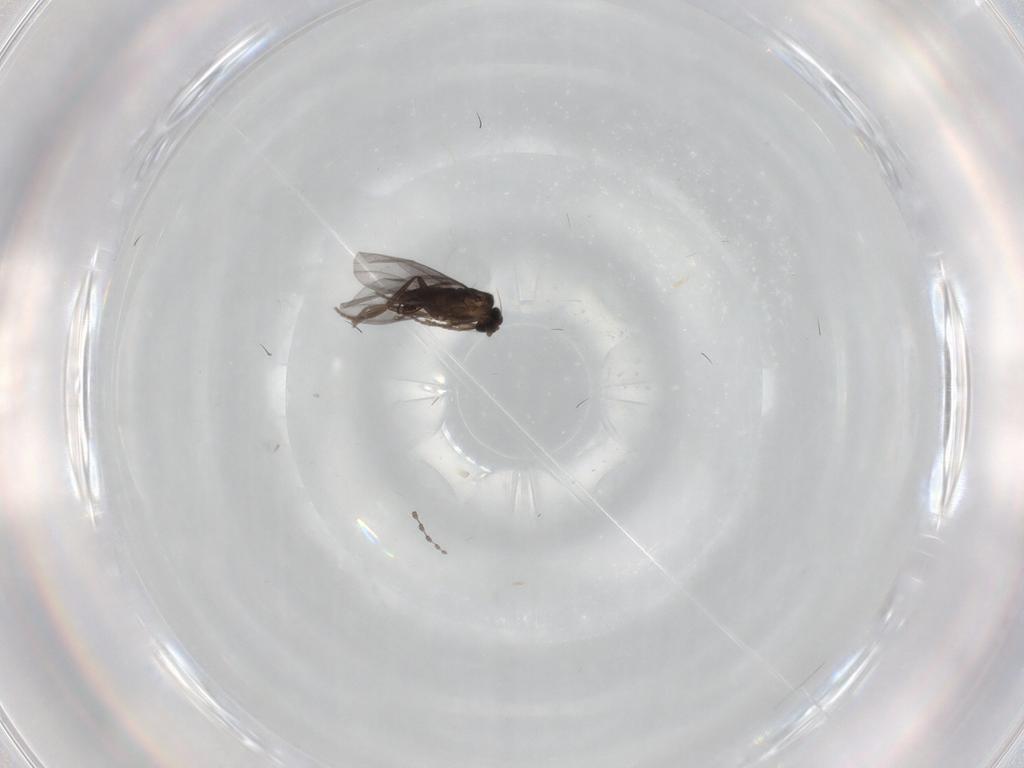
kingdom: Animalia
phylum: Arthropoda
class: Insecta
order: Diptera
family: Phoridae
